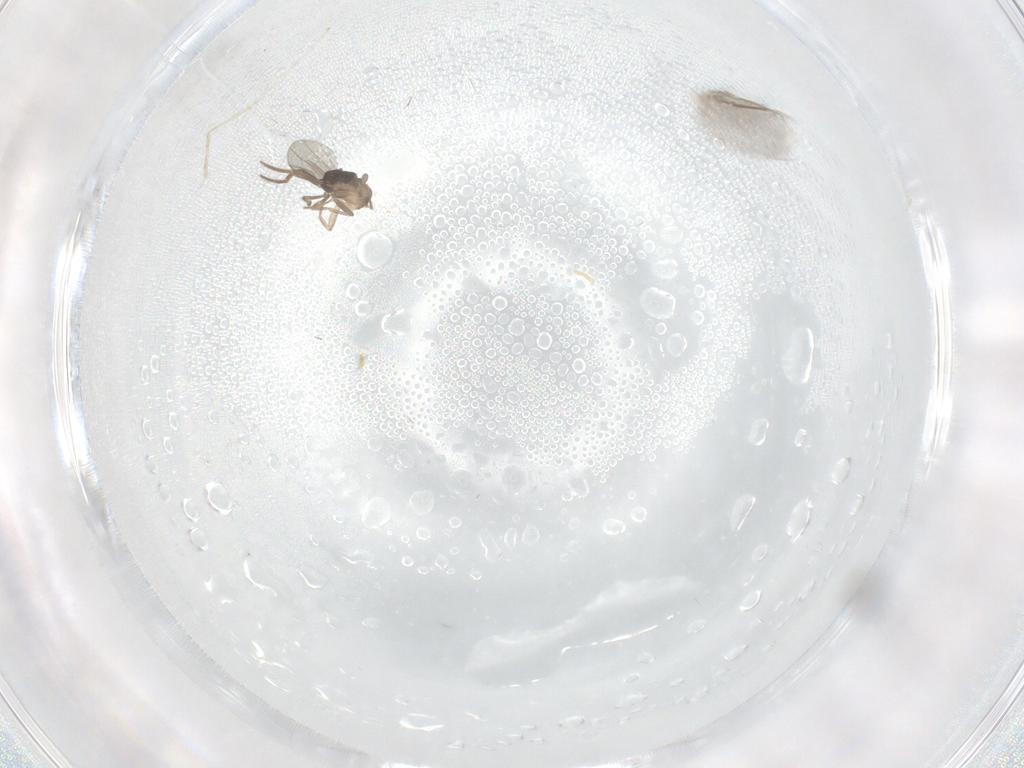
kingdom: Animalia
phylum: Arthropoda
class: Insecta
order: Diptera
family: Cecidomyiidae
